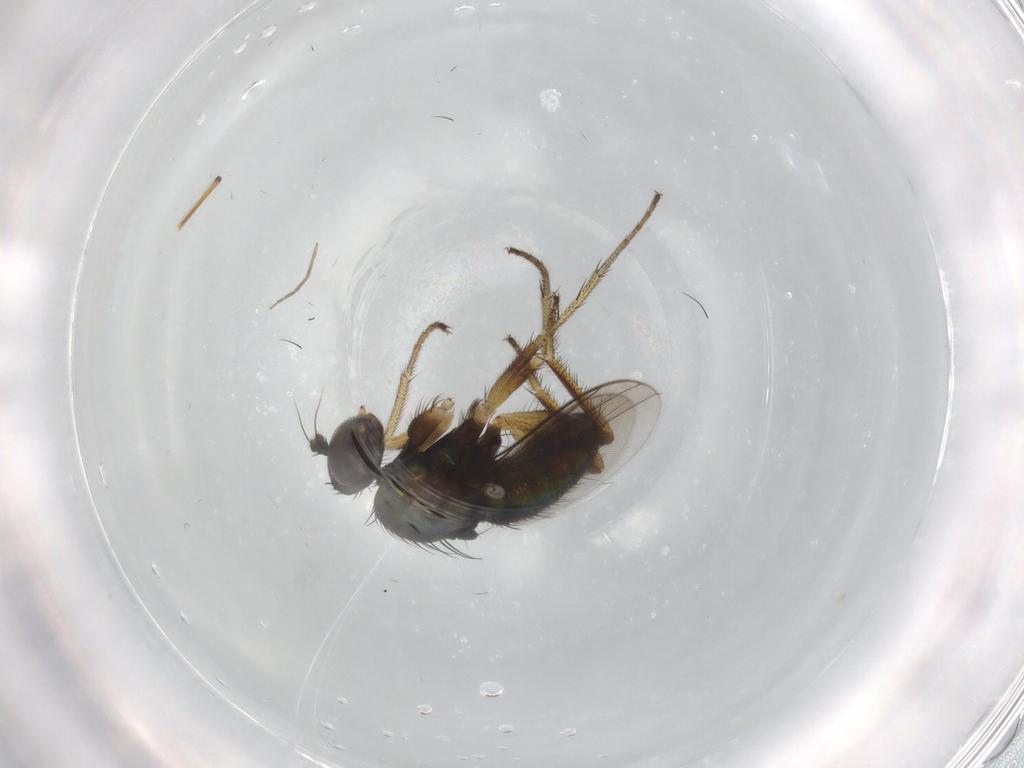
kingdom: Animalia
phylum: Arthropoda
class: Insecta
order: Diptera
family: Dolichopodidae
